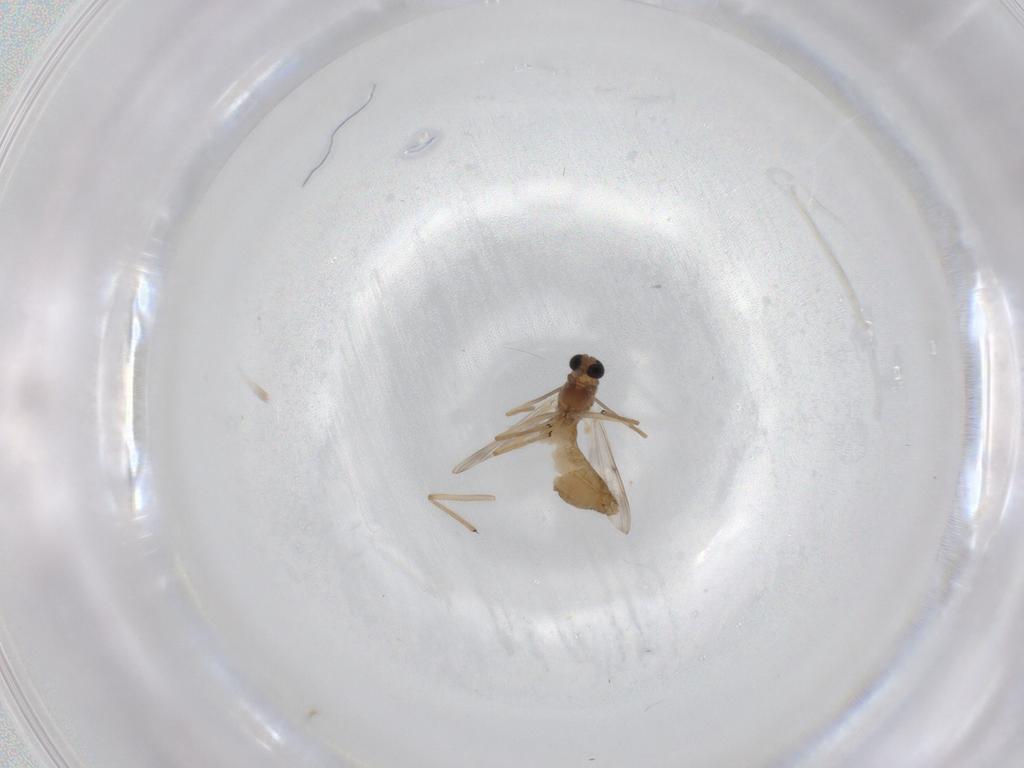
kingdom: Animalia
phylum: Arthropoda
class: Insecta
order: Diptera
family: Chironomidae
